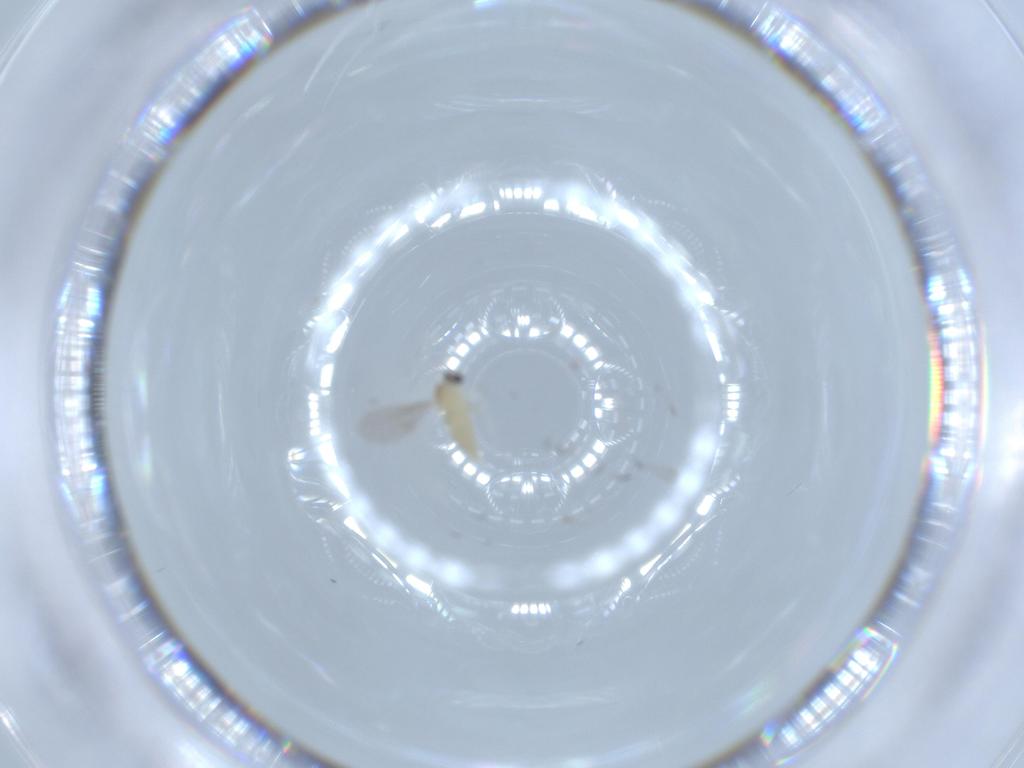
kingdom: Animalia
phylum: Arthropoda
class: Insecta
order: Diptera
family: Cecidomyiidae
